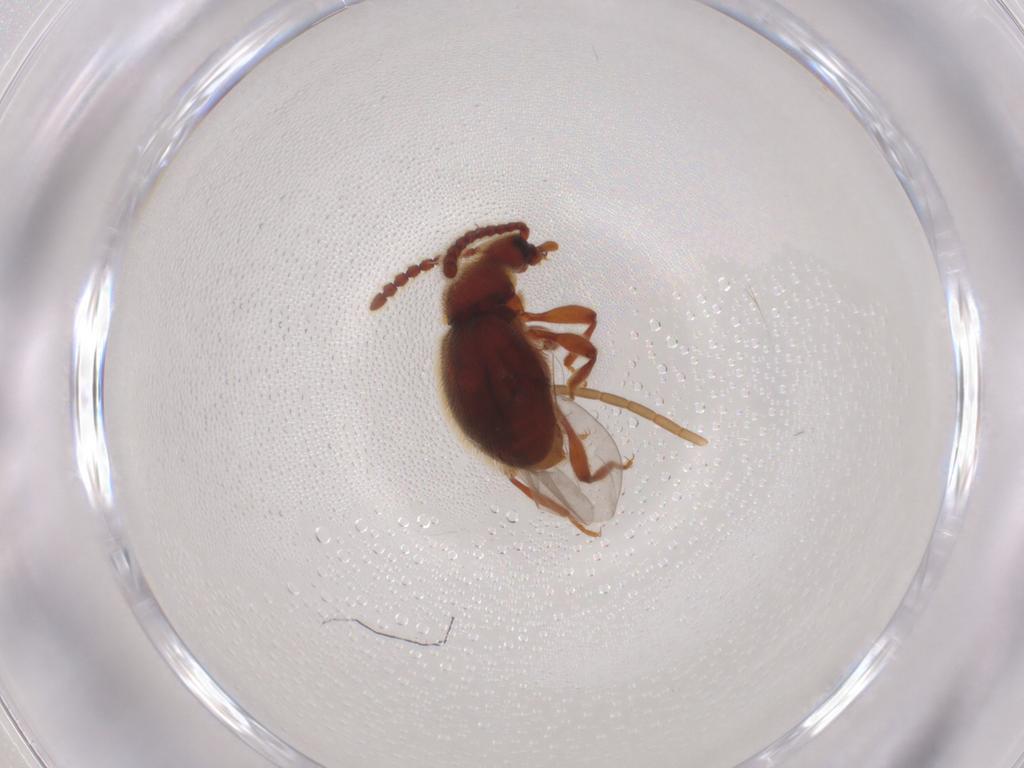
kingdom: Animalia
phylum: Arthropoda
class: Insecta
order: Coleoptera
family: Staphylinidae
